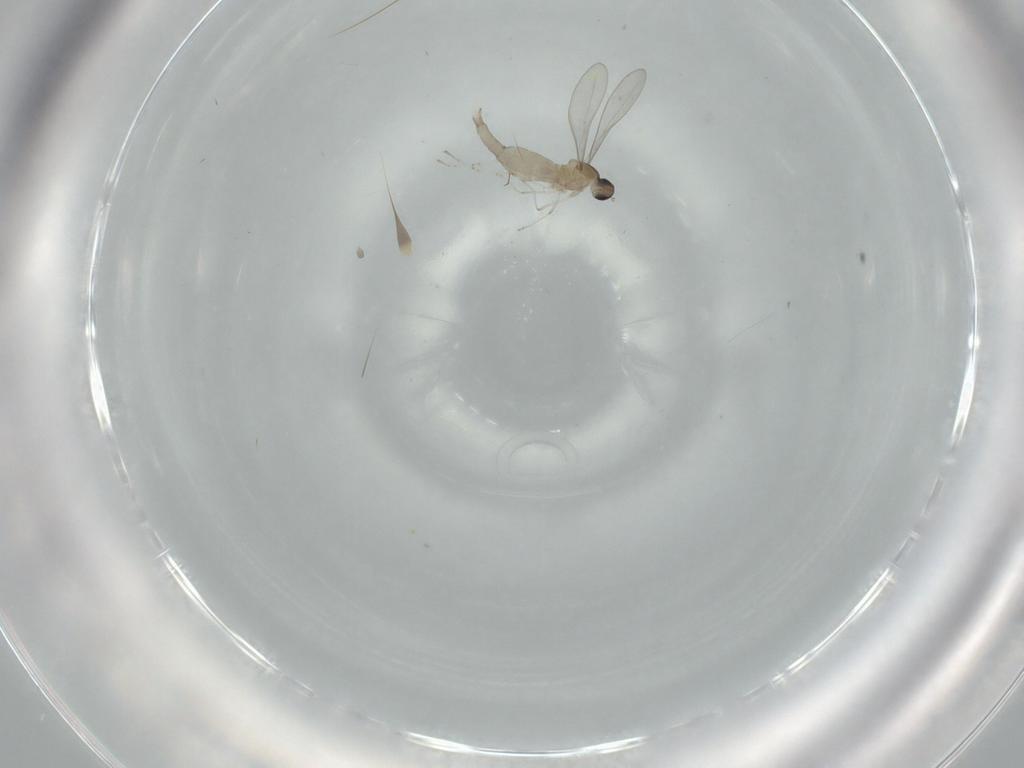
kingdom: Animalia
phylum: Arthropoda
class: Insecta
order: Diptera
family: Cecidomyiidae
